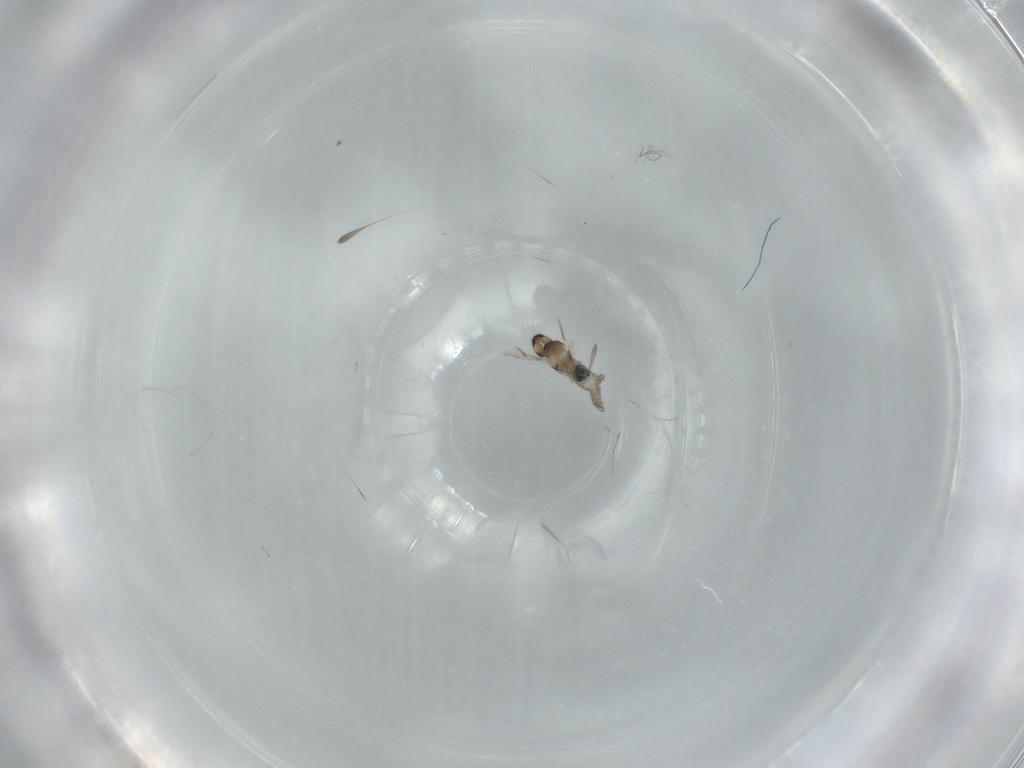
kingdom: Animalia
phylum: Arthropoda
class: Insecta
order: Diptera
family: Cecidomyiidae
